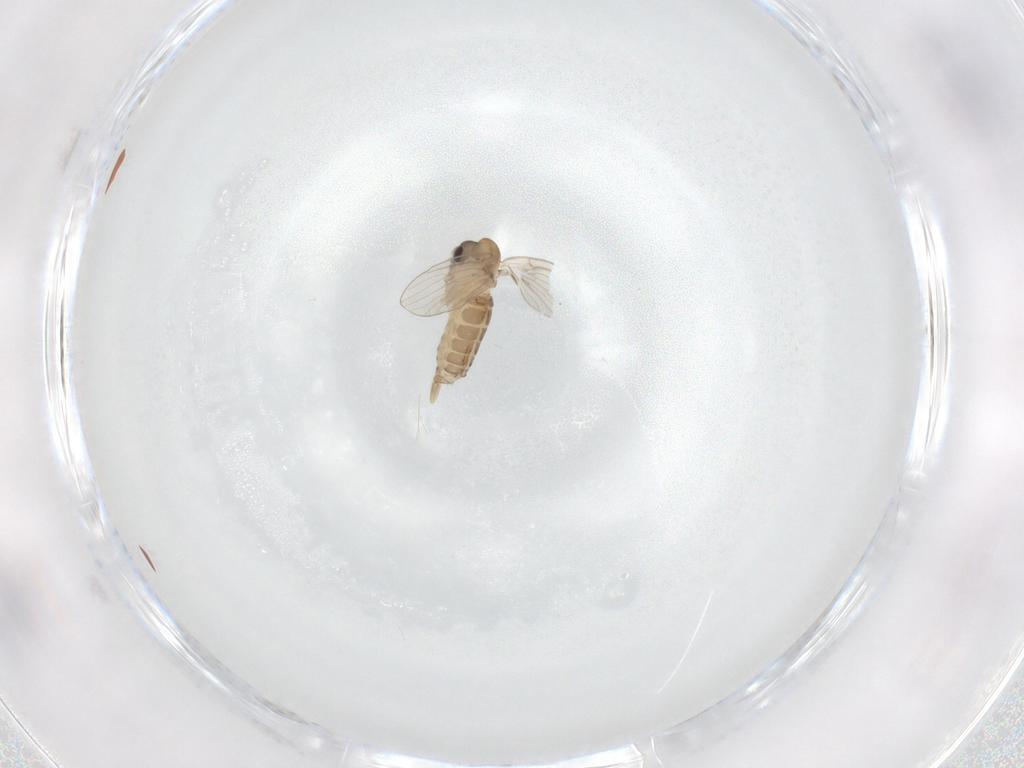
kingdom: Animalia
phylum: Arthropoda
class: Insecta
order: Diptera
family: Psychodidae
